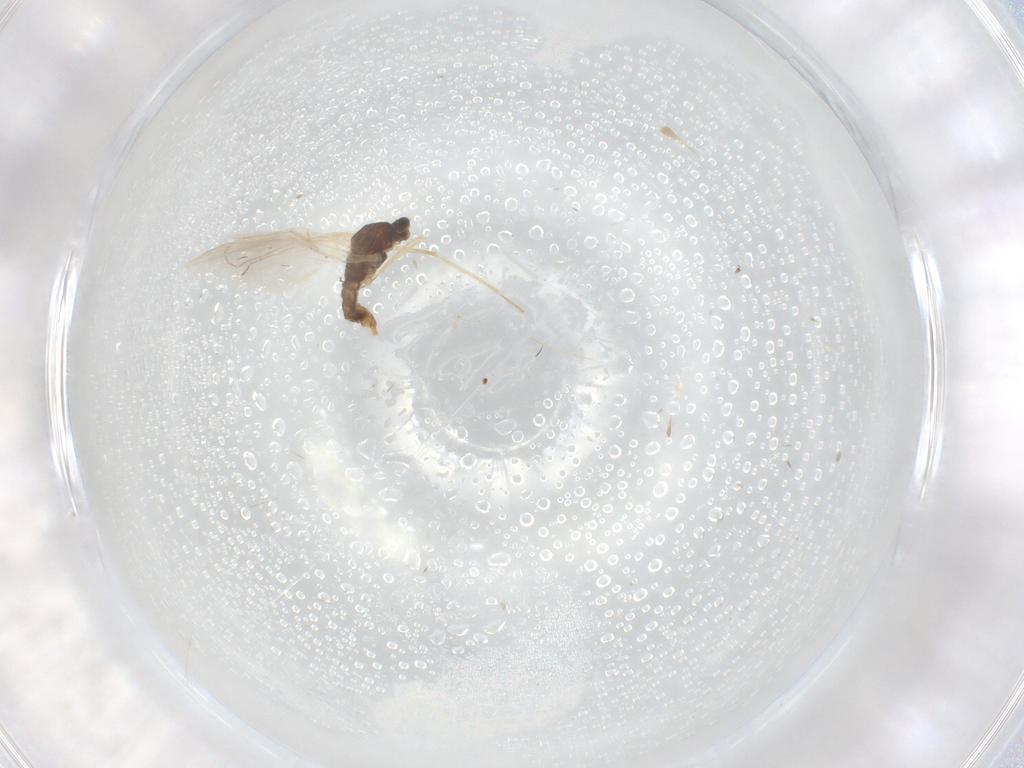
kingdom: Animalia
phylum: Arthropoda
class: Insecta
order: Diptera
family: Cecidomyiidae
